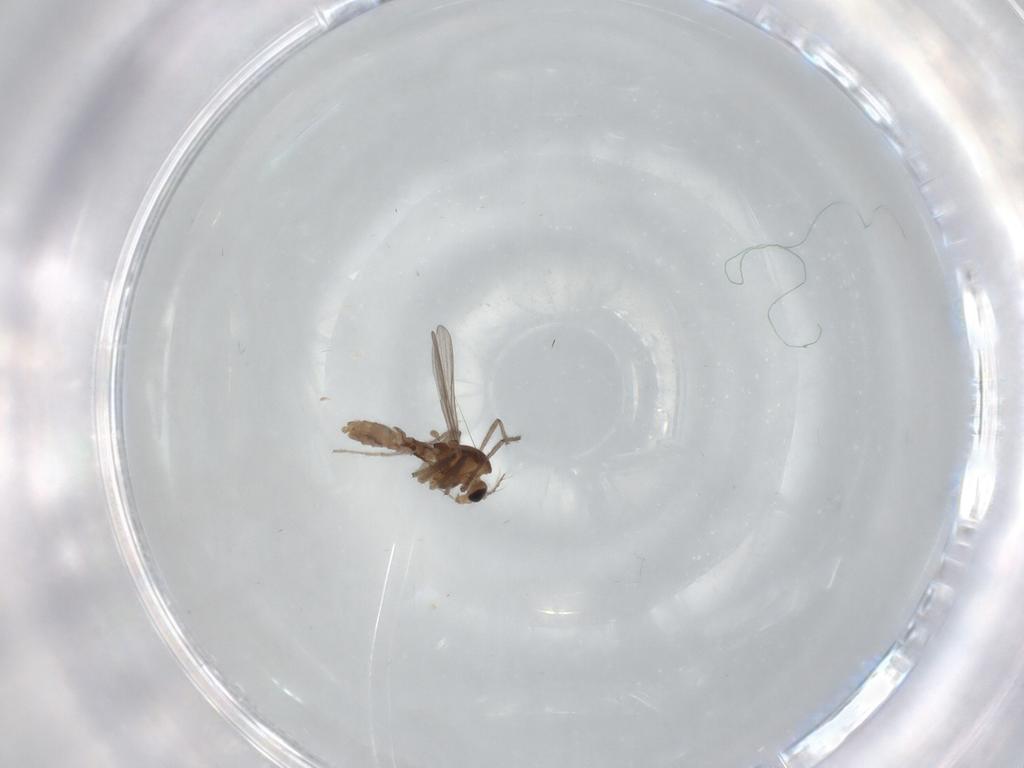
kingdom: Animalia
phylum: Arthropoda
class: Insecta
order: Diptera
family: Chironomidae
